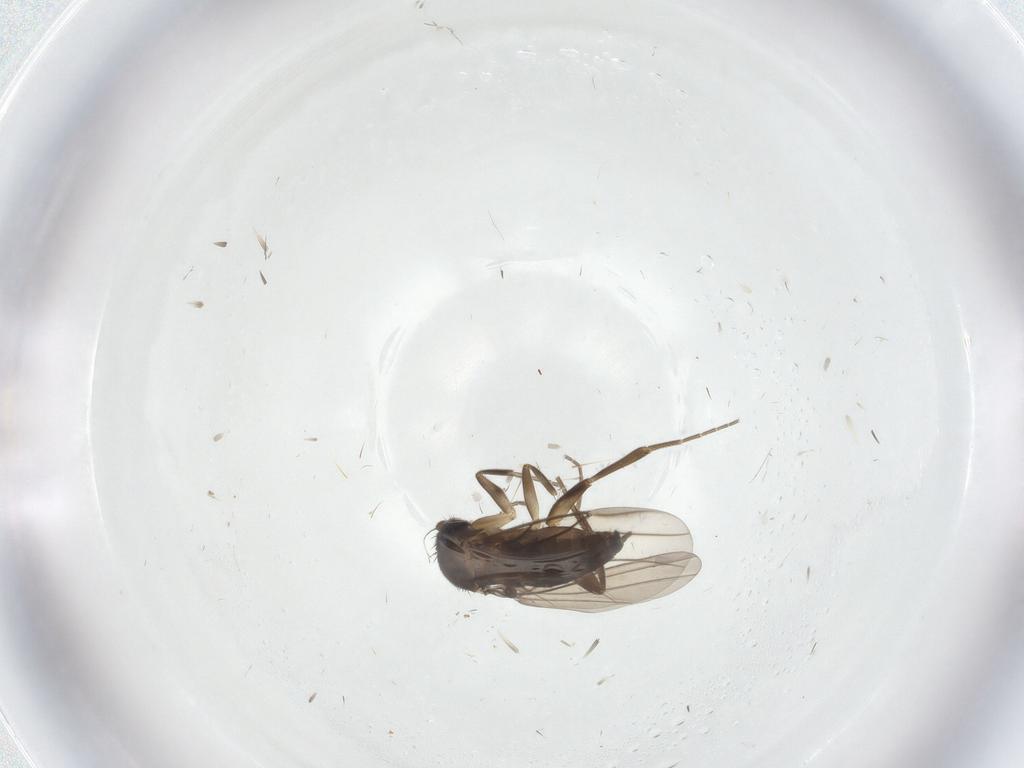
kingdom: Animalia
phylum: Arthropoda
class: Insecta
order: Diptera
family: Phoridae
